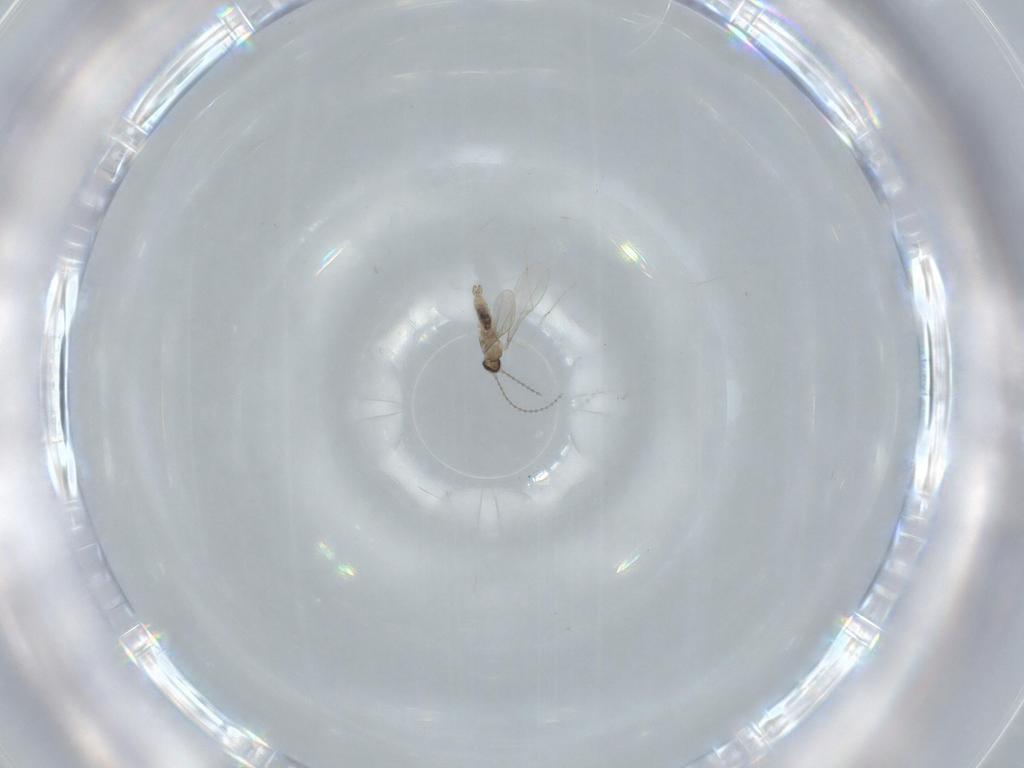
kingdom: Animalia
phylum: Arthropoda
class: Insecta
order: Diptera
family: Cecidomyiidae
